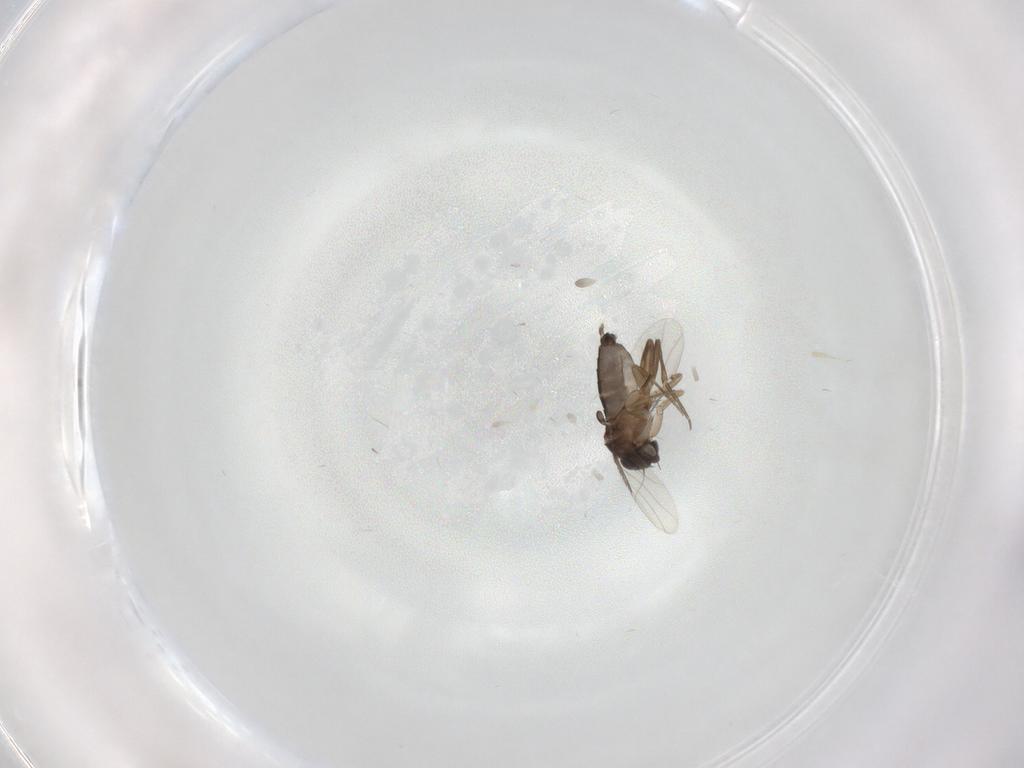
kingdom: Animalia
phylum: Arthropoda
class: Insecta
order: Diptera
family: Phoridae
